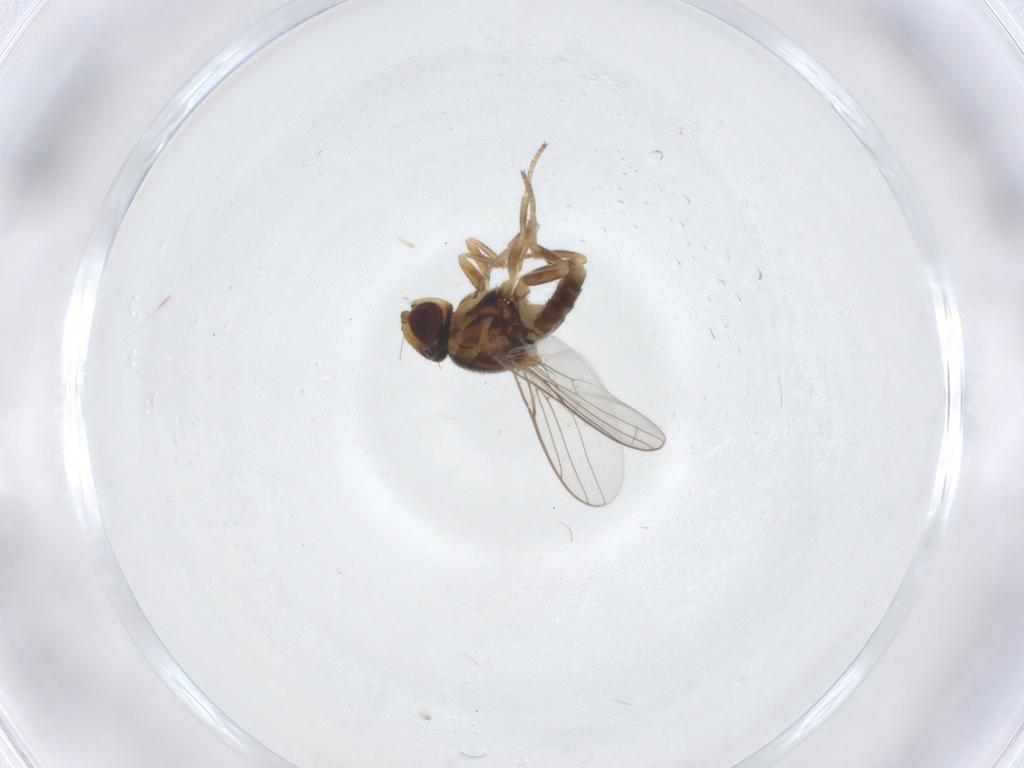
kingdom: Animalia
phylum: Arthropoda
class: Insecta
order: Diptera
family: Chloropidae
